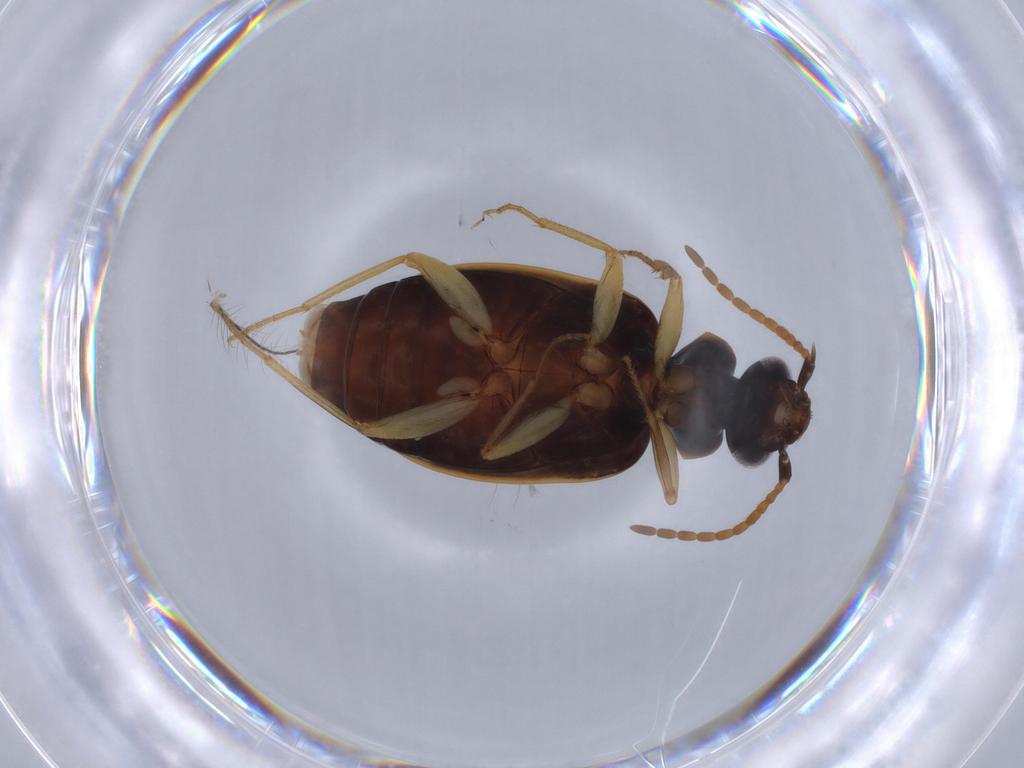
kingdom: Animalia
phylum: Arthropoda
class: Insecta
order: Coleoptera
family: Carabidae
